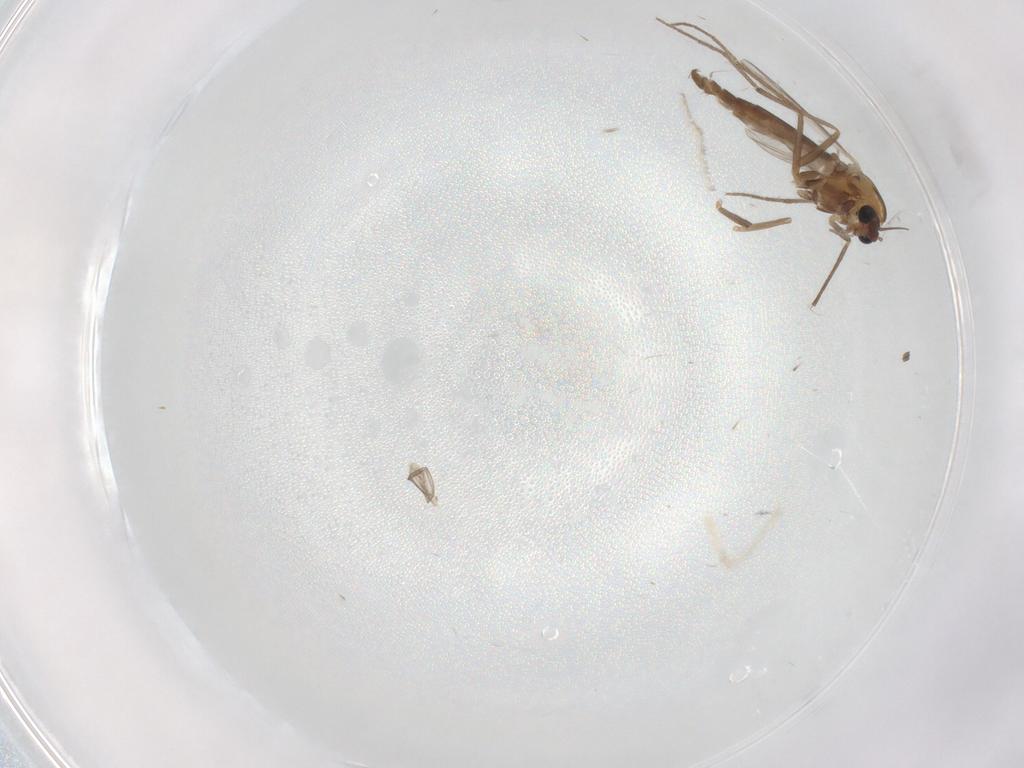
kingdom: Animalia
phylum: Arthropoda
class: Insecta
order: Diptera
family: Chironomidae
